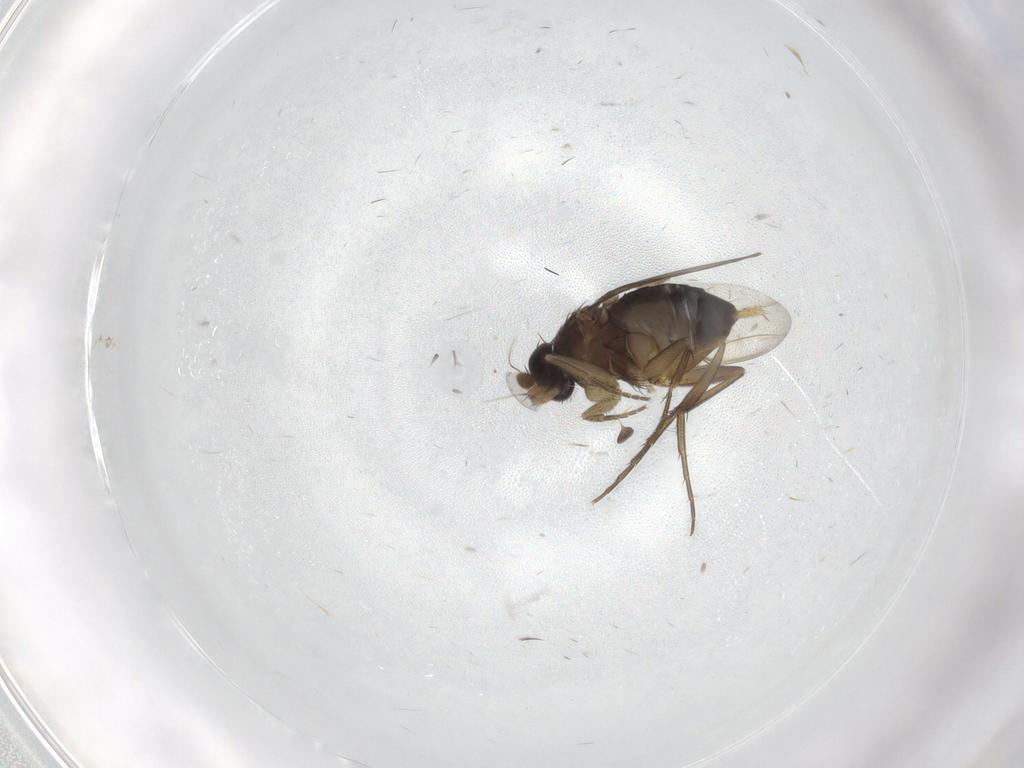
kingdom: Animalia
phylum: Arthropoda
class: Insecta
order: Diptera
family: Phoridae
